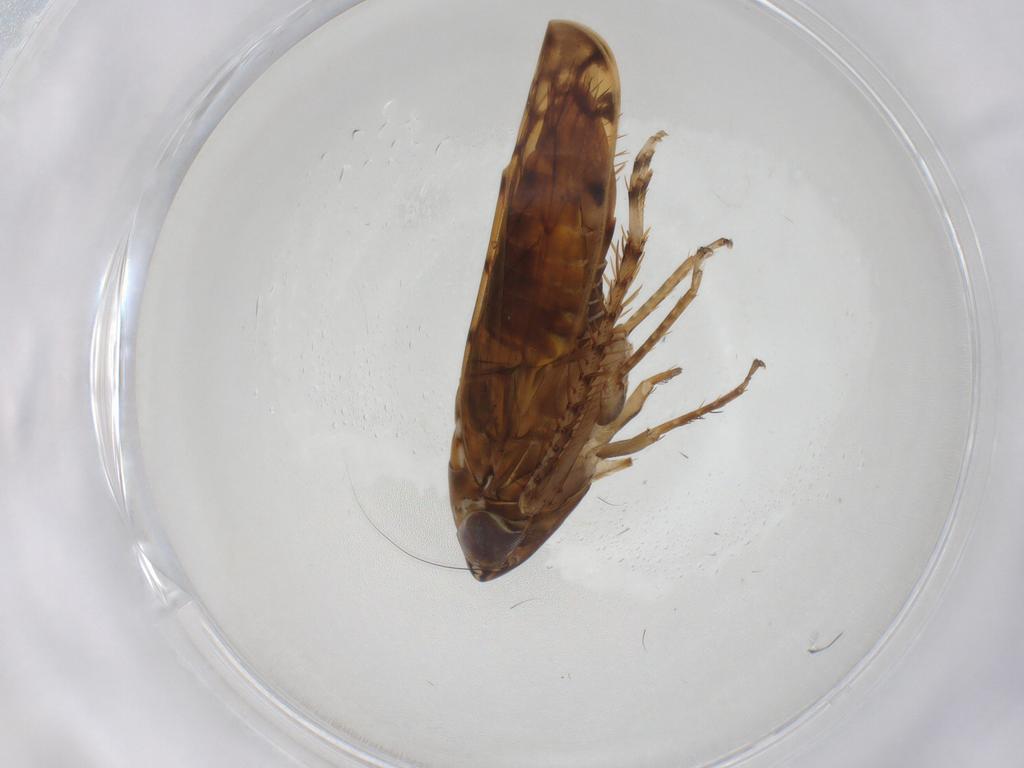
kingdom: Animalia
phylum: Arthropoda
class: Insecta
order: Hemiptera
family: Cicadellidae
